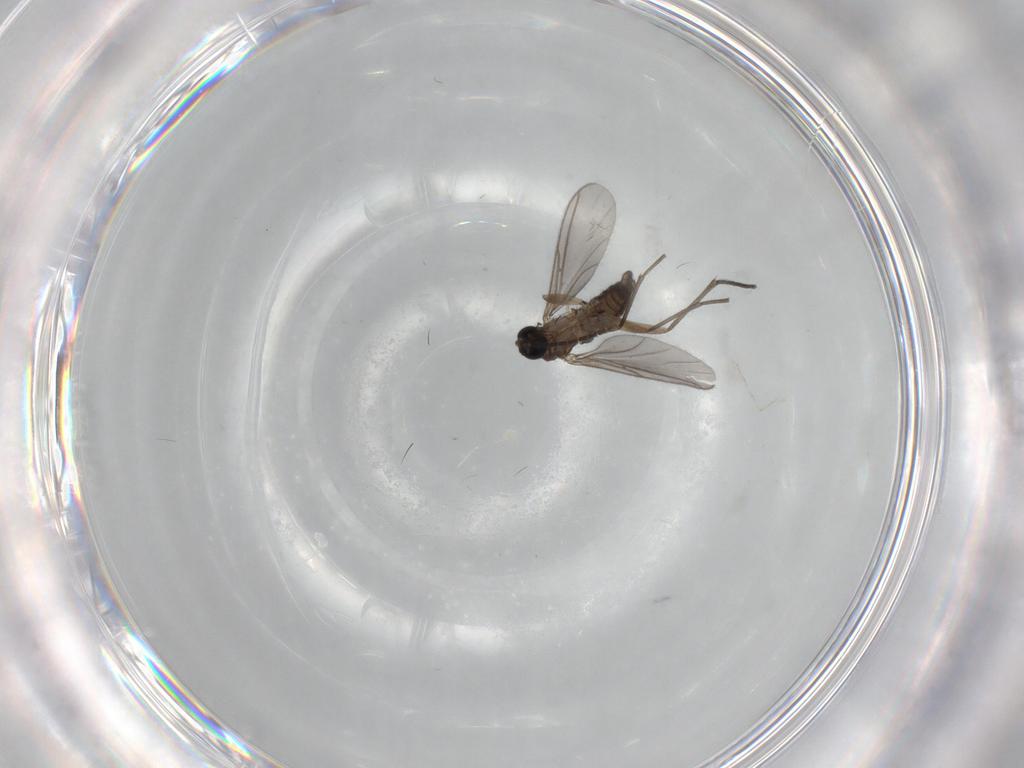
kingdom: Animalia
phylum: Arthropoda
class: Insecta
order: Diptera
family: Sciaridae
